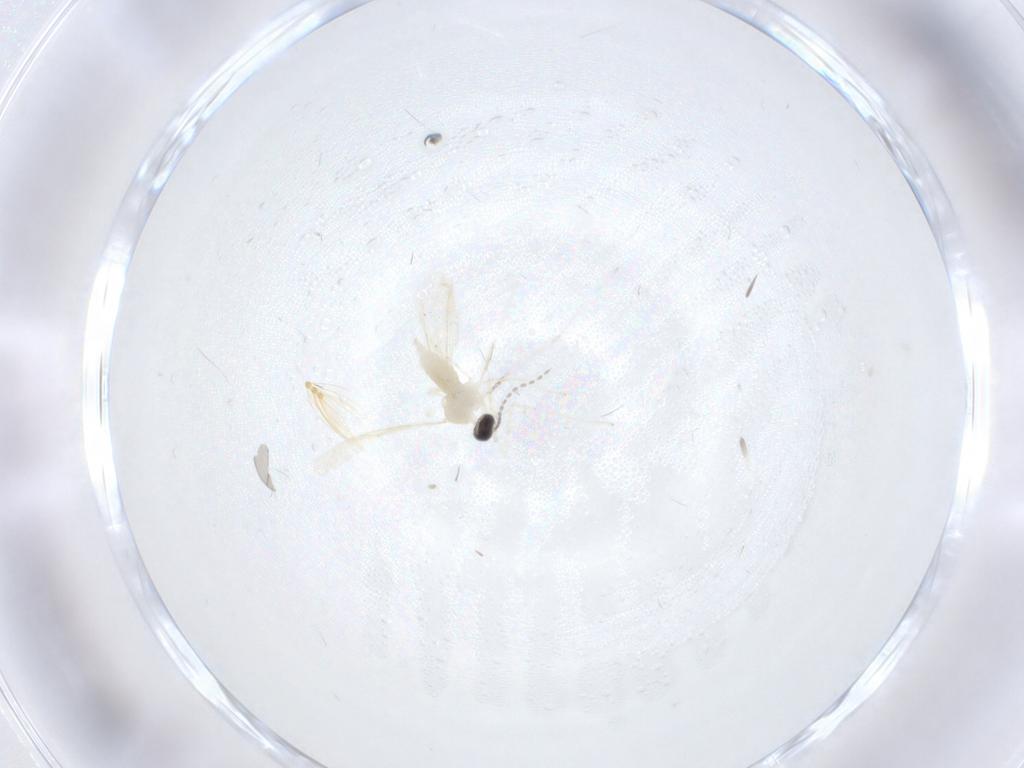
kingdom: Animalia
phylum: Arthropoda
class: Insecta
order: Diptera
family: Cecidomyiidae
